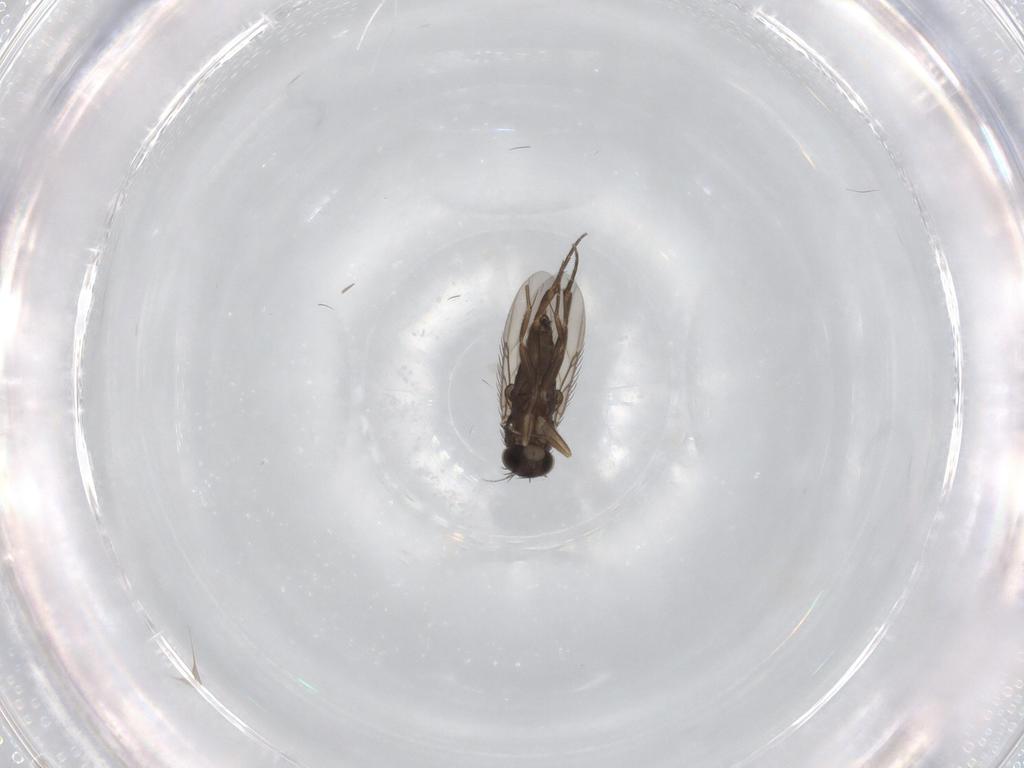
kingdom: Animalia
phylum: Arthropoda
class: Insecta
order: Diptera
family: Phoridae
